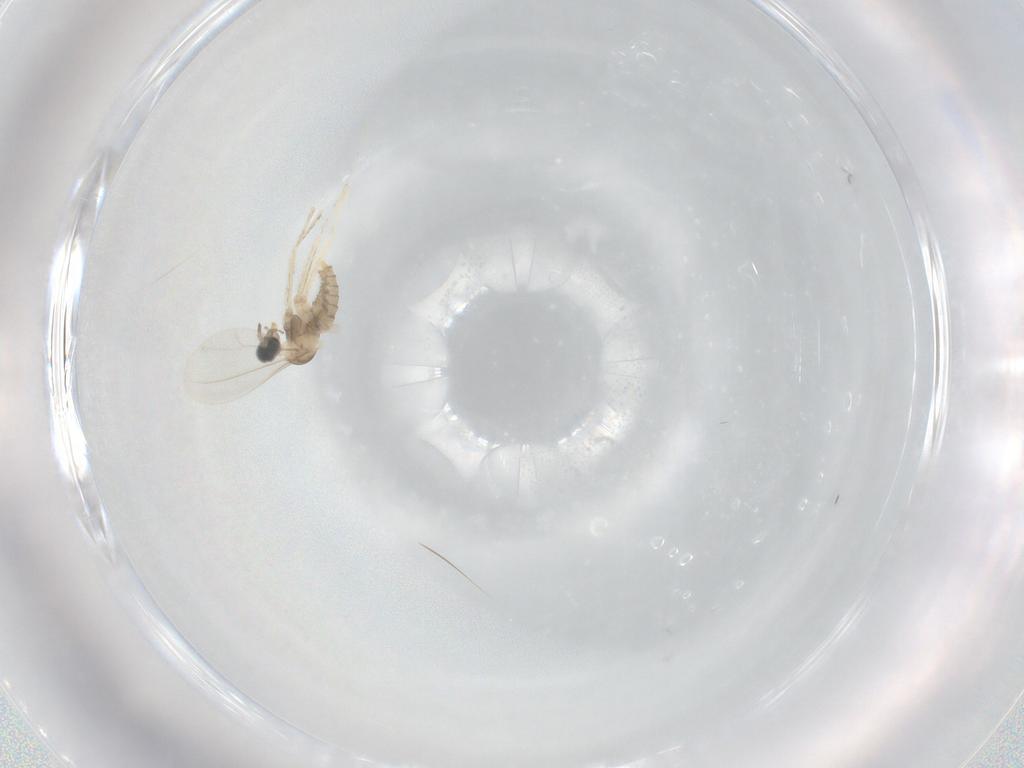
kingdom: Animalia
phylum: Arthropoda
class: Insecta
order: Diptera
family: Cecidomyiidae
